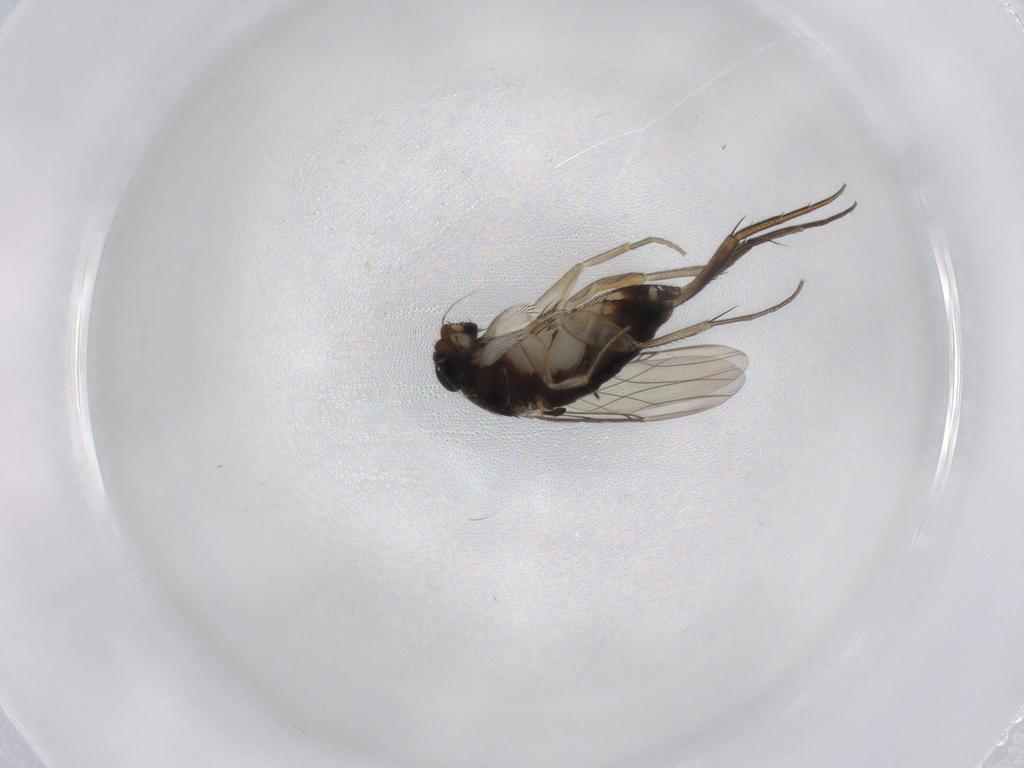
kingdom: Animalia
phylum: Arthropoda
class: Insecta
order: Diptera
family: Phoridae
